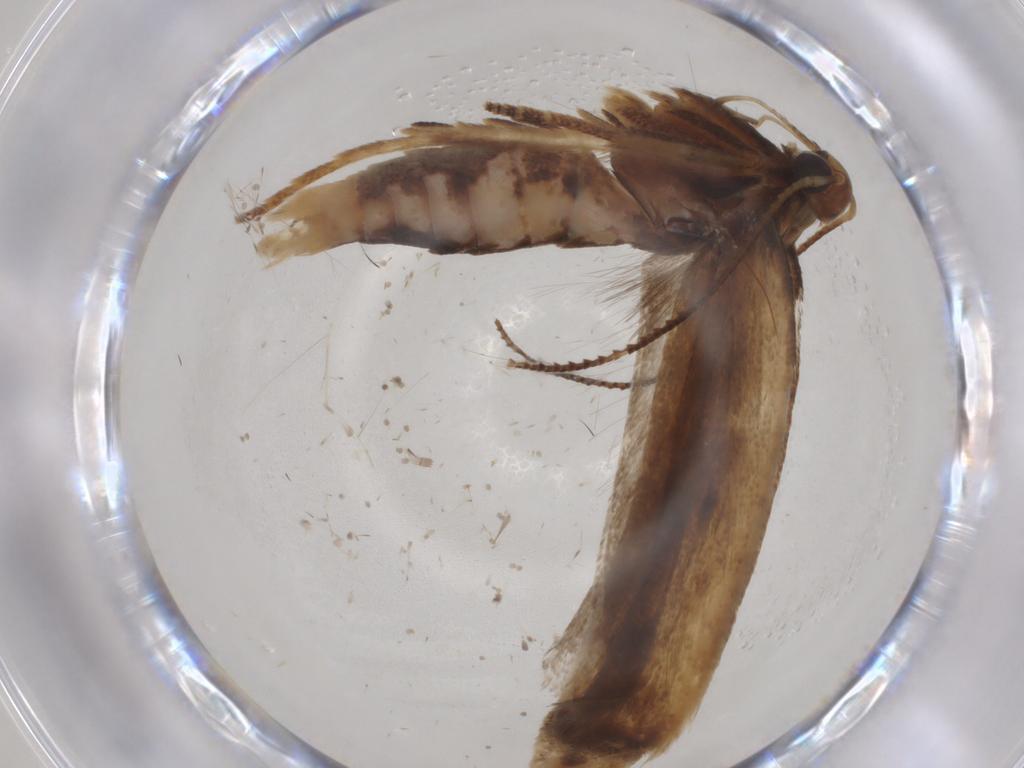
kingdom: Animalia
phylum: Arthropoda
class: Insecta
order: Lepidoptera
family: Gelechiidae
